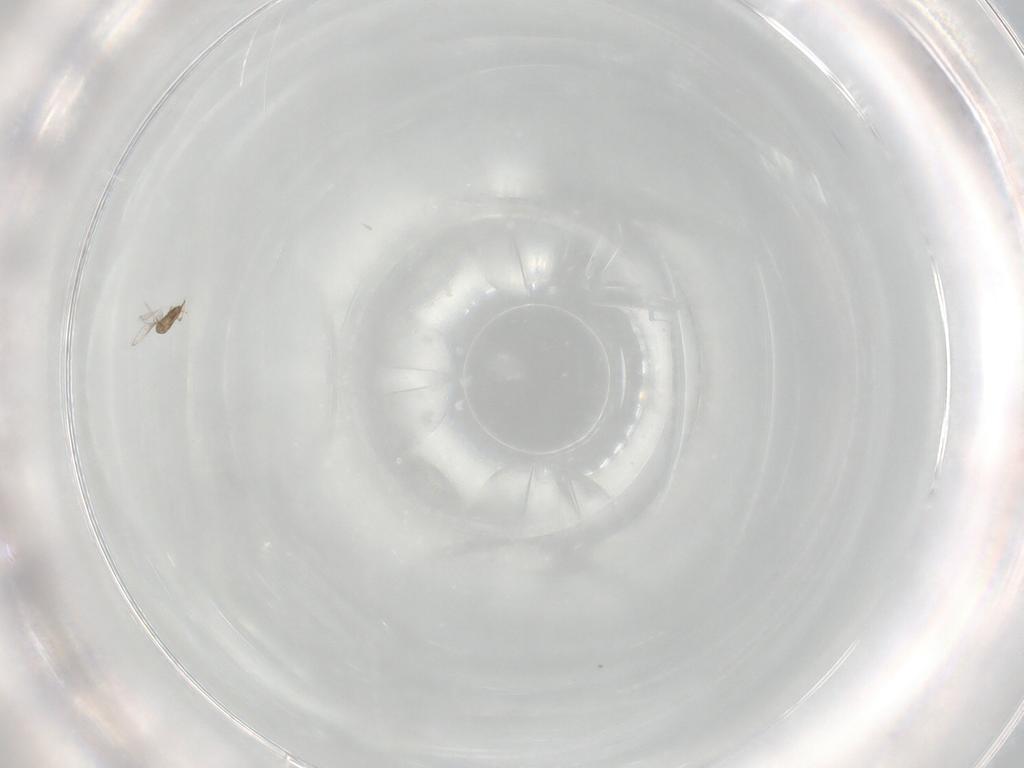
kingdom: Animalia
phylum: Arthropoda
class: Insecta
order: Hymenoptera
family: Trichogrammatidae
